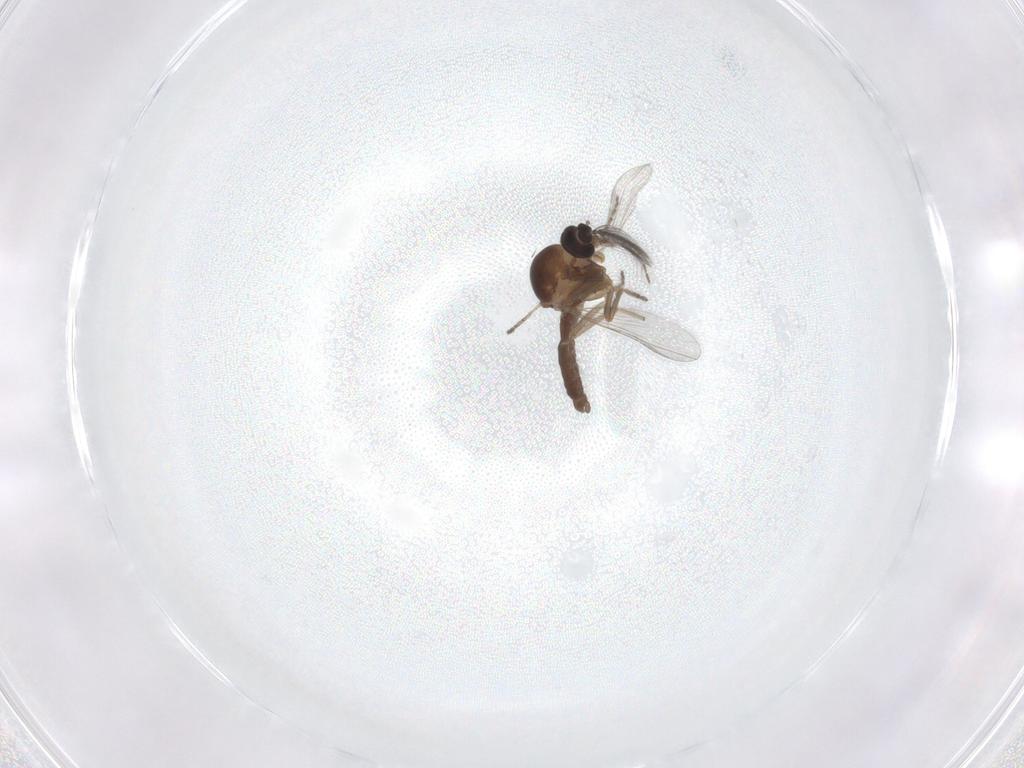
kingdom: Animalia
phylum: Arthropoda
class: Insecta
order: Diptera
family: Ceratopogonidae
